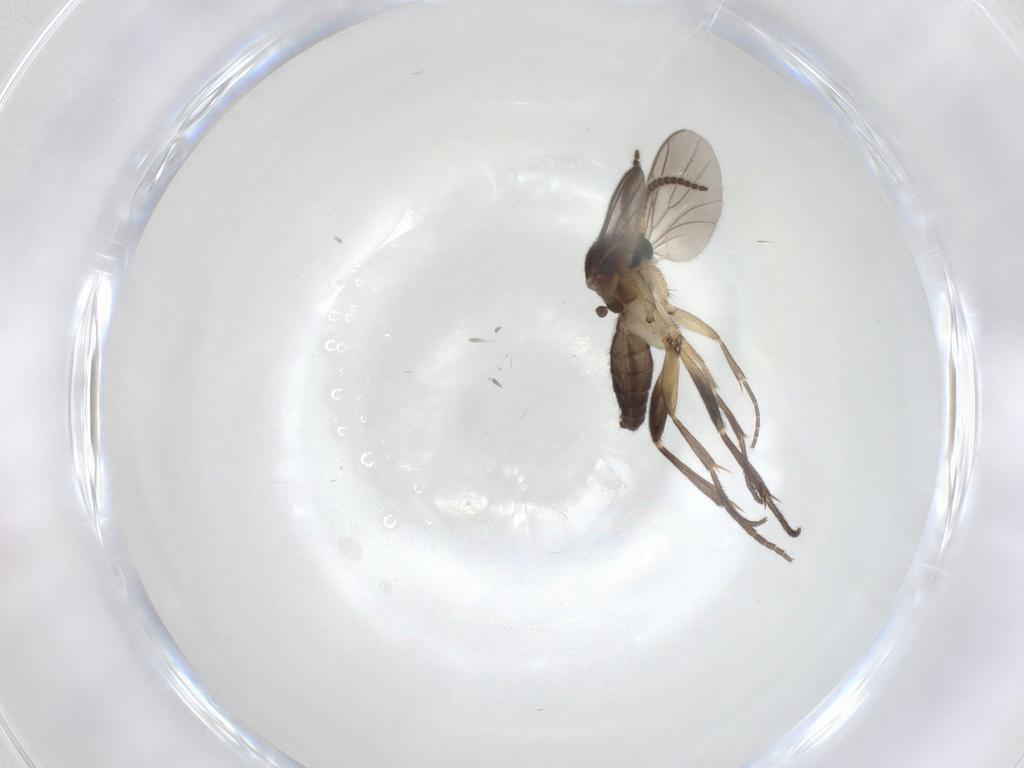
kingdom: Animalia
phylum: Arthropoda
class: Insecta
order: Diptera
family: Mycetophilidae
